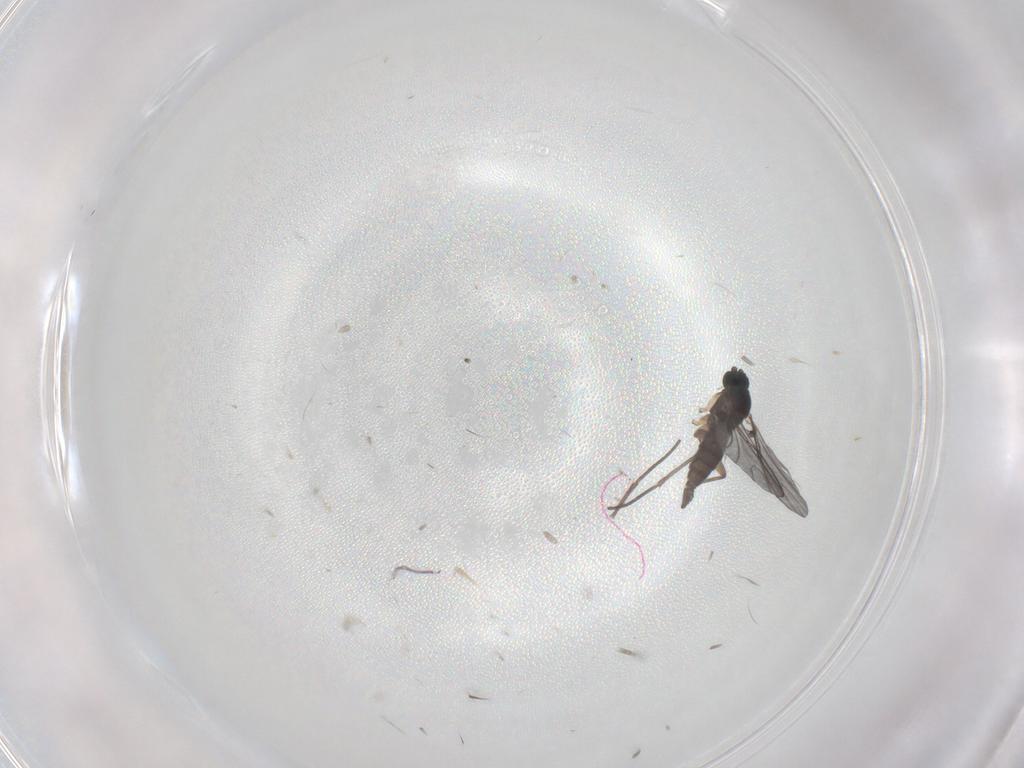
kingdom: Animalia
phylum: Arthropoda
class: Insecta
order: Diptera
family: Sciaridae
